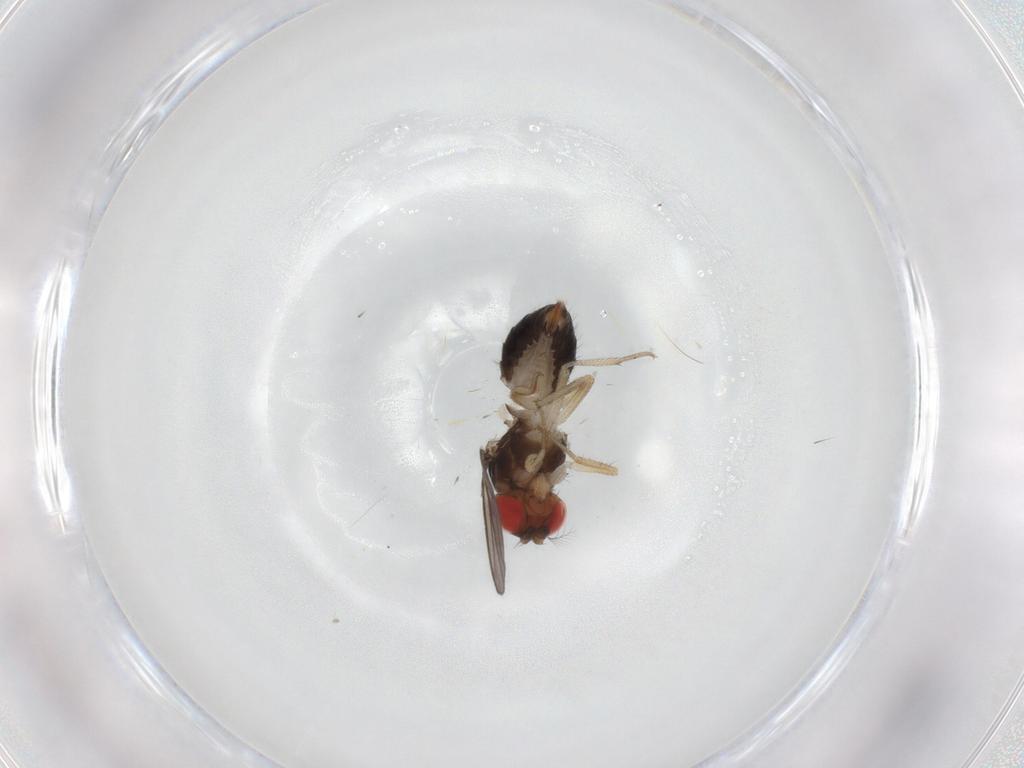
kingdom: Animalia
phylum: Arthropoda
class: Insecta
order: Diptera
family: Drosophilidae
